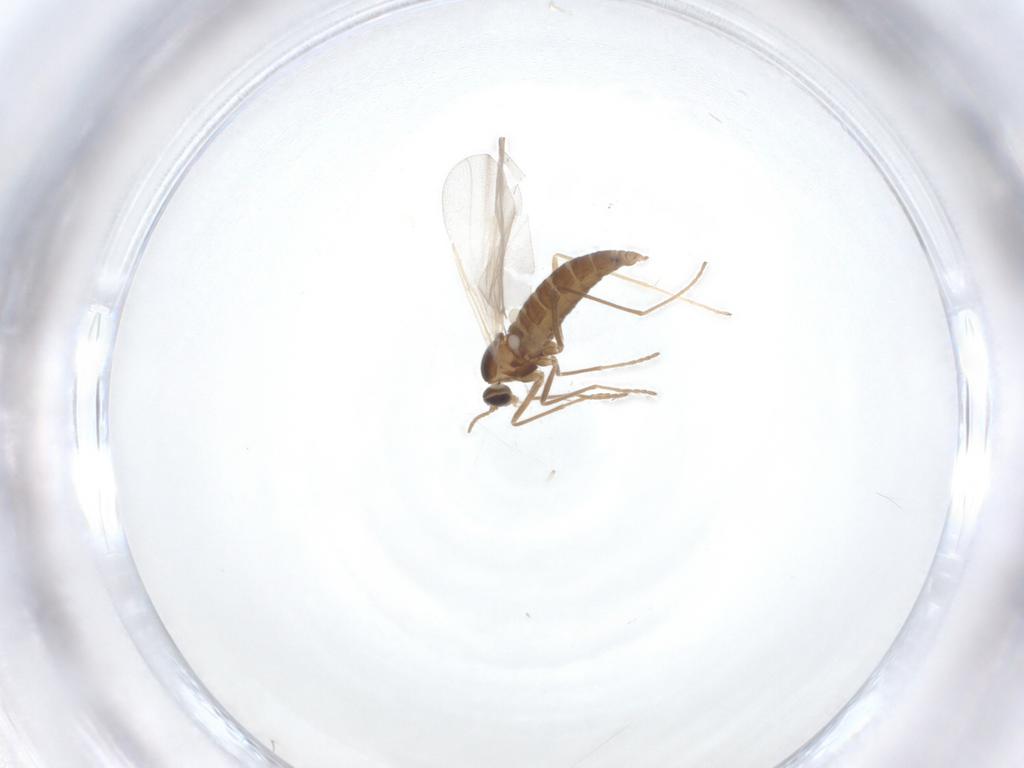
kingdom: Animalia
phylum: Arthropoda
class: Insecta
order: Diptera
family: Cecidomyiidae
